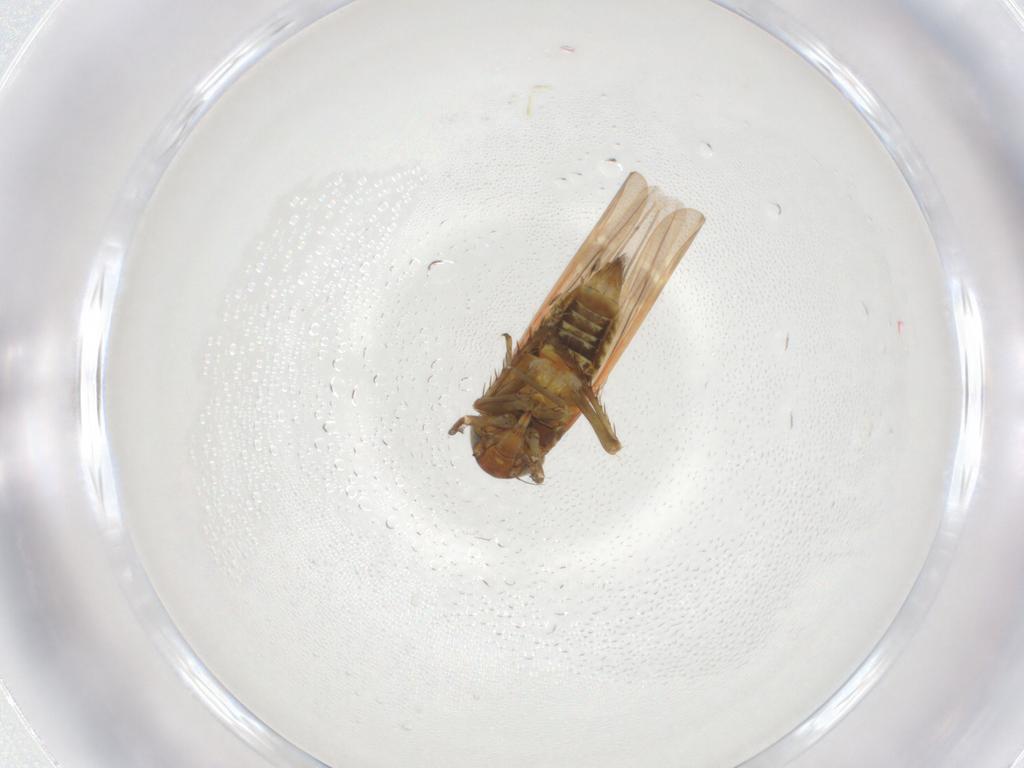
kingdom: Animalia
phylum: Arthropoda
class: Insecta
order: Hemiptera
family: Cicadellidae
